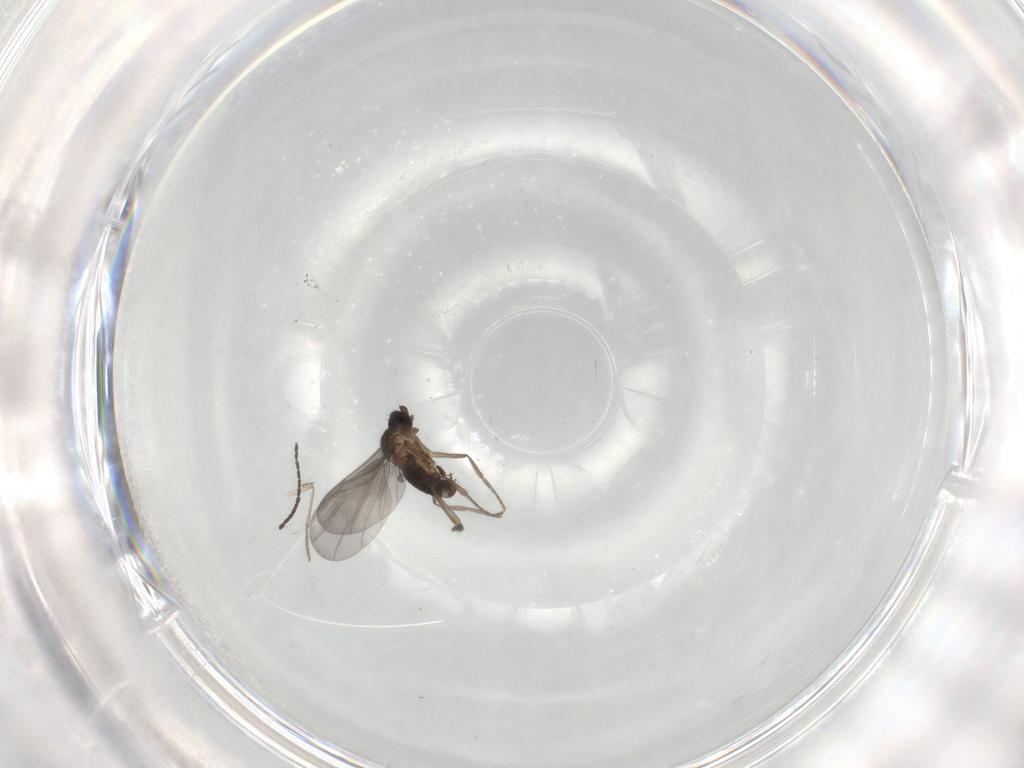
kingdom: Animalia
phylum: Arthropoda
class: Insecta
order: Diptera
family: Phoridae
